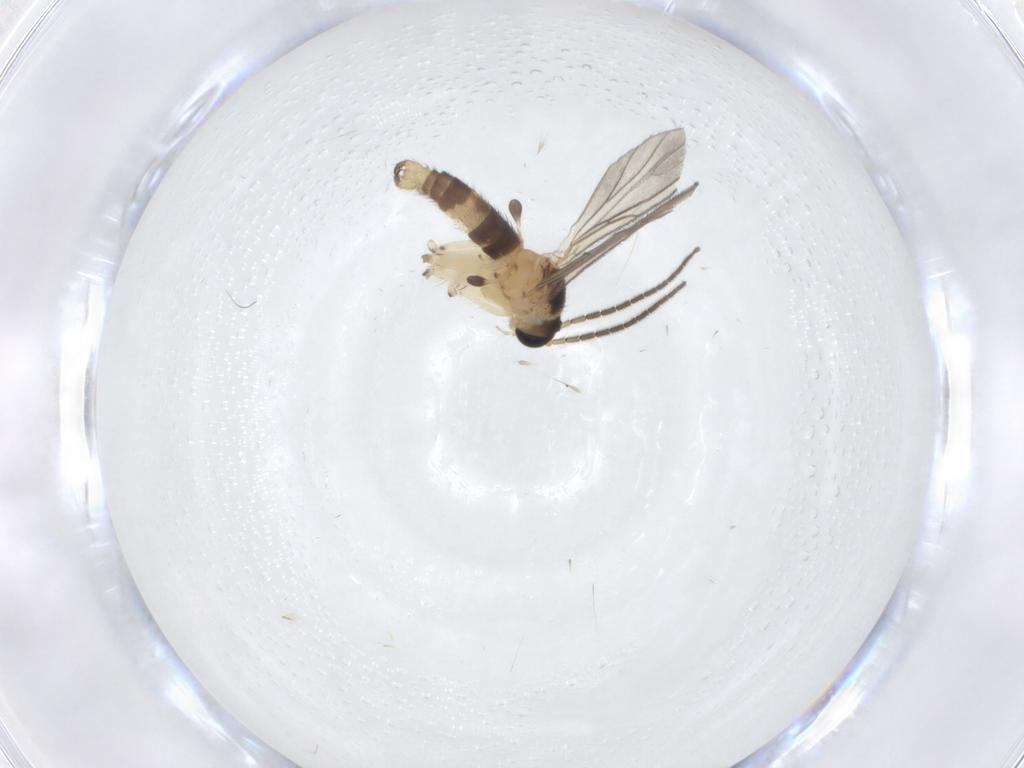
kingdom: Animalia
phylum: Arthropoda
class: Insecta
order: Diptera
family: Sciaridae
